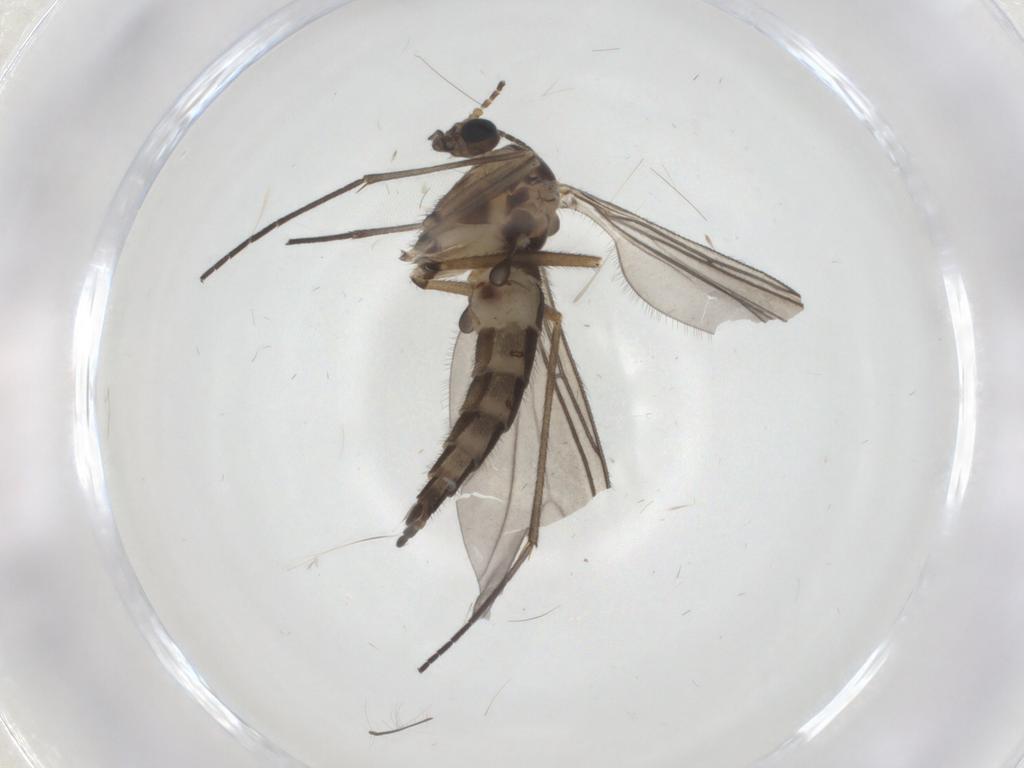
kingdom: Animalia
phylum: Arthropoda
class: Insecta
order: Diptera
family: Sciaridae
